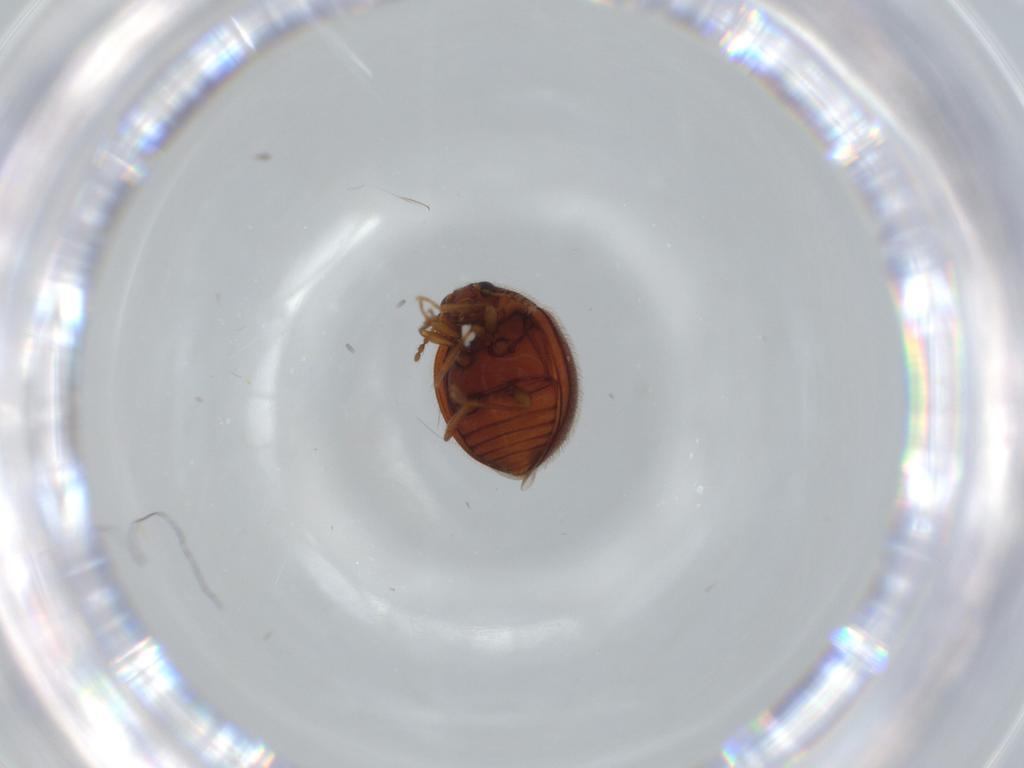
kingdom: Animalia
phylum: Arthropoda
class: Insecta
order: Coleoptera
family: Anamorphidae
